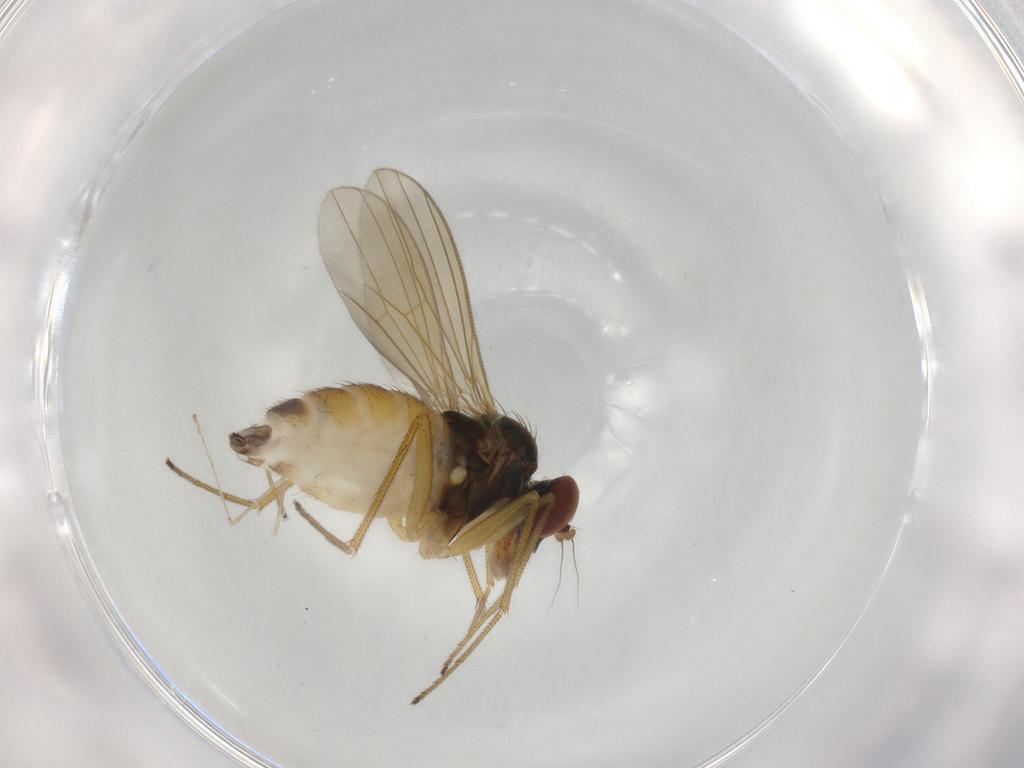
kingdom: Animalia
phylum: Arthropoda
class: Insecta
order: Diptera
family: Dolichopodidae
